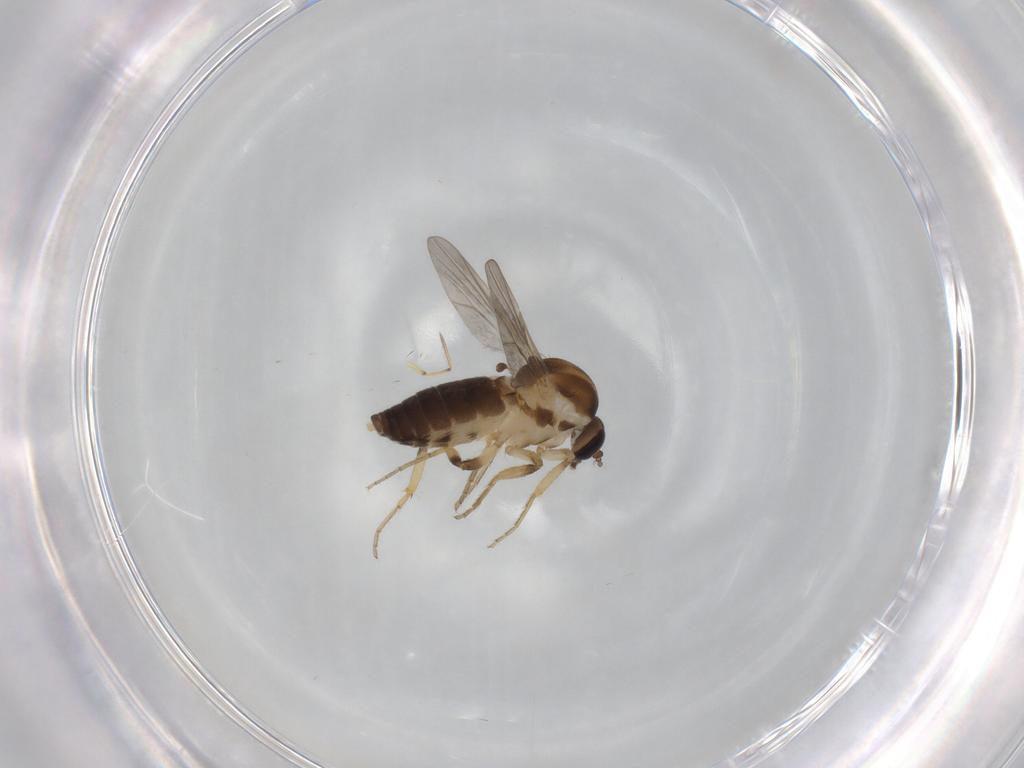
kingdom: Animalia
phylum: Arthropoda
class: Insecta
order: Diptera
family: Ceratopogonidae
